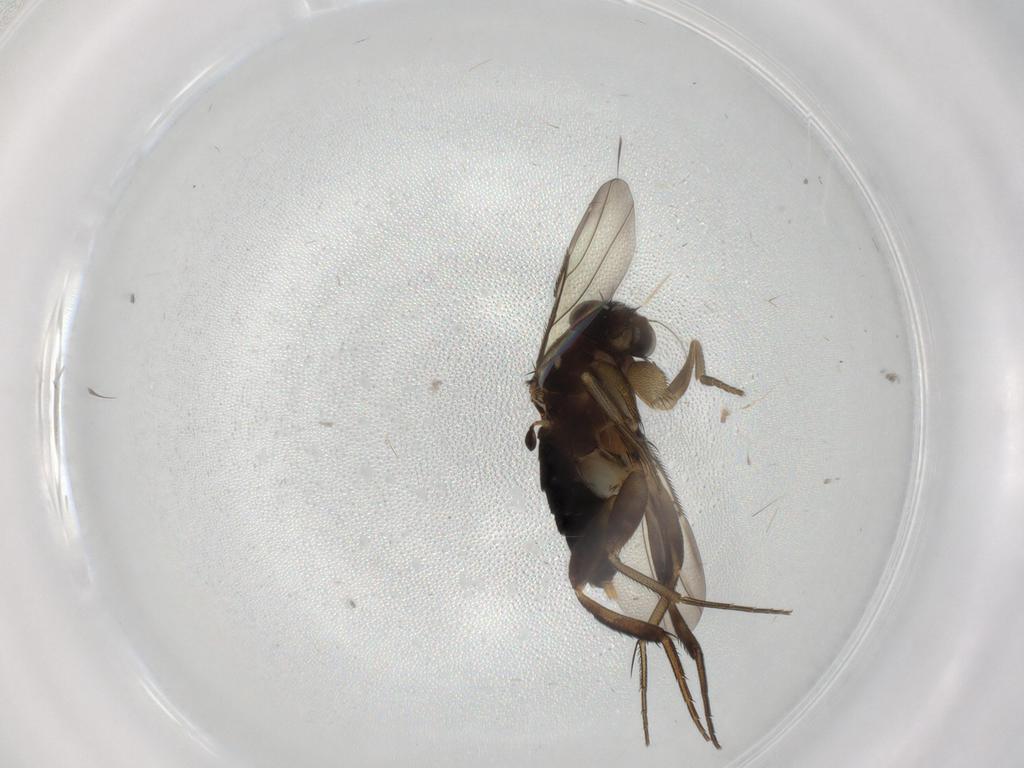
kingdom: Animalia
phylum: Arthropoda
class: Insecta
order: Diptera
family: Phoridae
